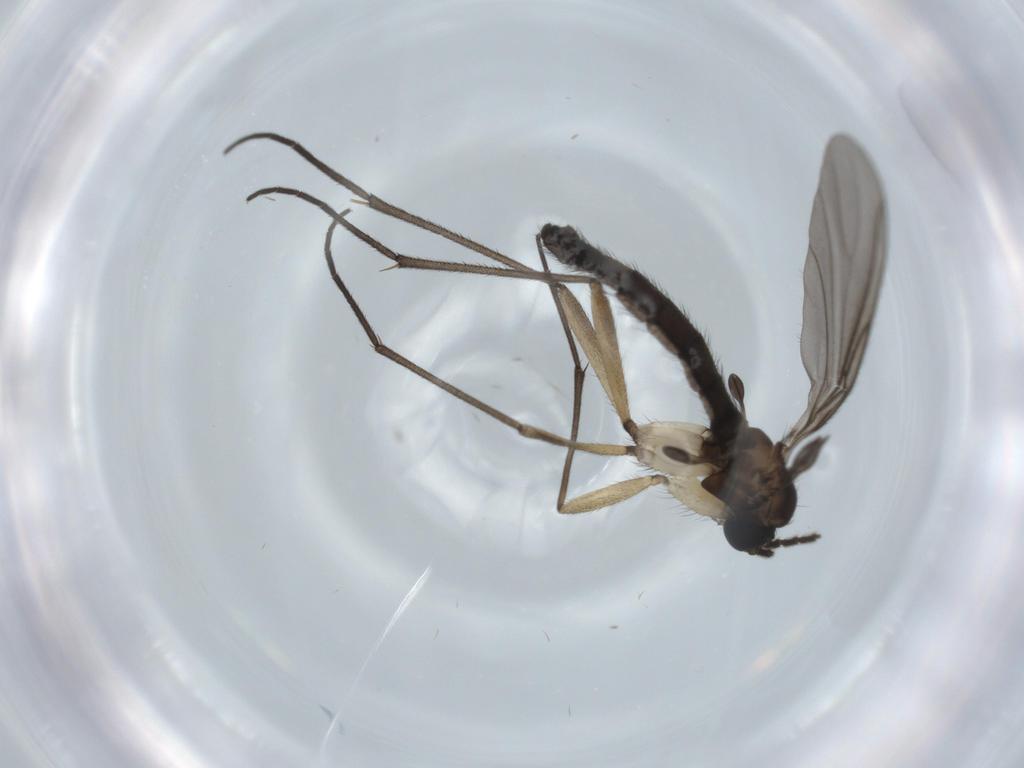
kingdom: Animalia
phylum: Arthropoda
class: Insecta
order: Diptera
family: Sciaridae
